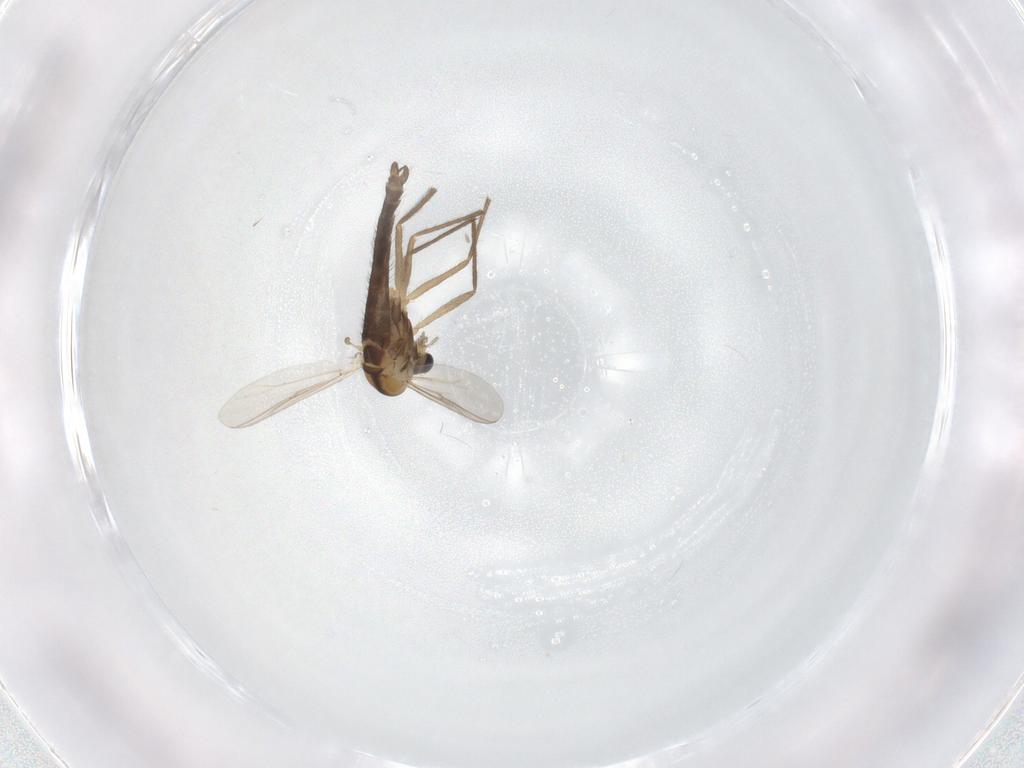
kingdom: Animalia
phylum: Arthropoda
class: Insecta
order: Diptera
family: Chironomidae
